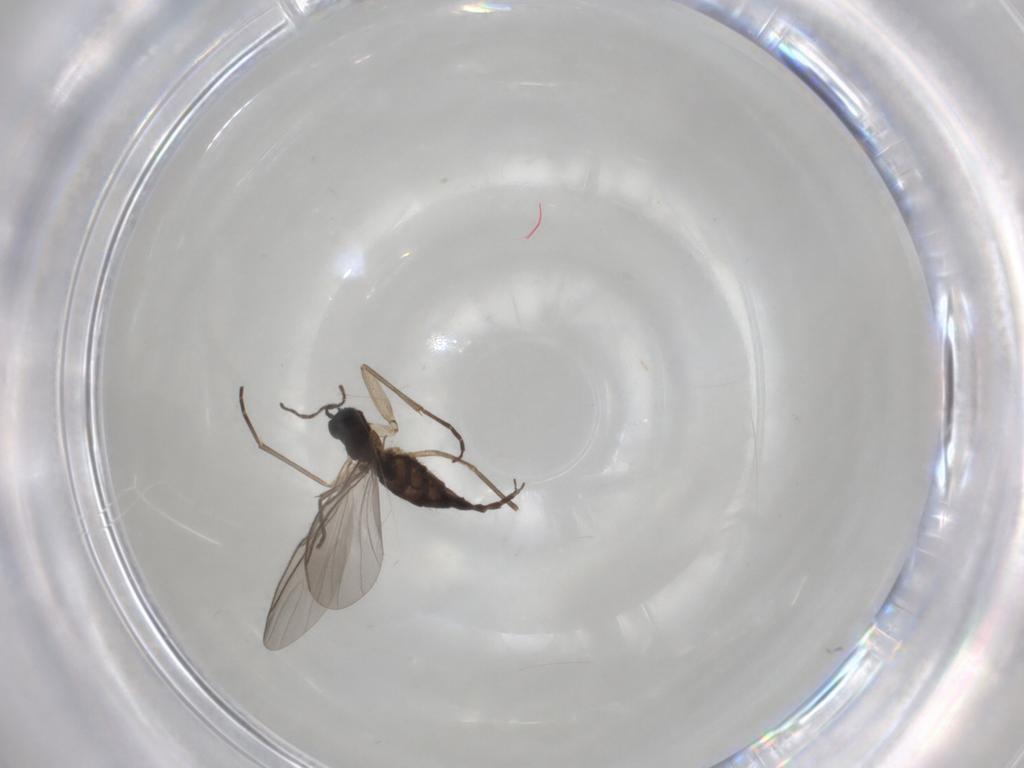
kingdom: Animalia
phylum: Arthropoda
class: Insecta
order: Diptera
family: Sciaridae
